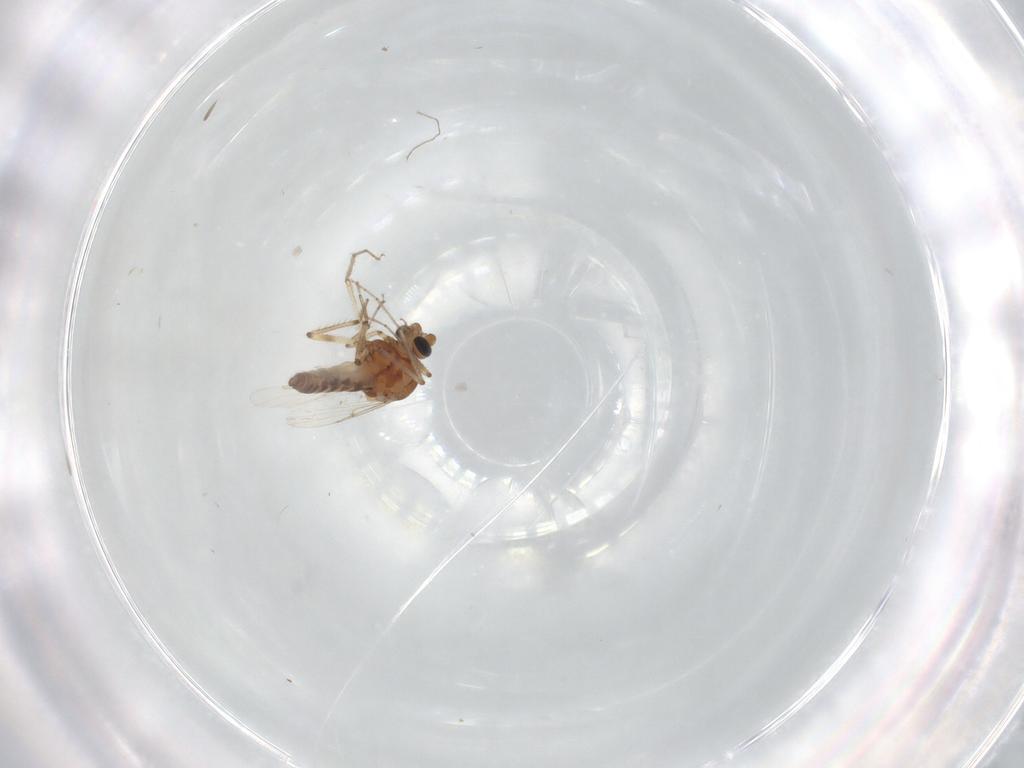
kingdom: Animalia
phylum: Arthropoda
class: Insecta
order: Diptera
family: Ceratopogonidae
